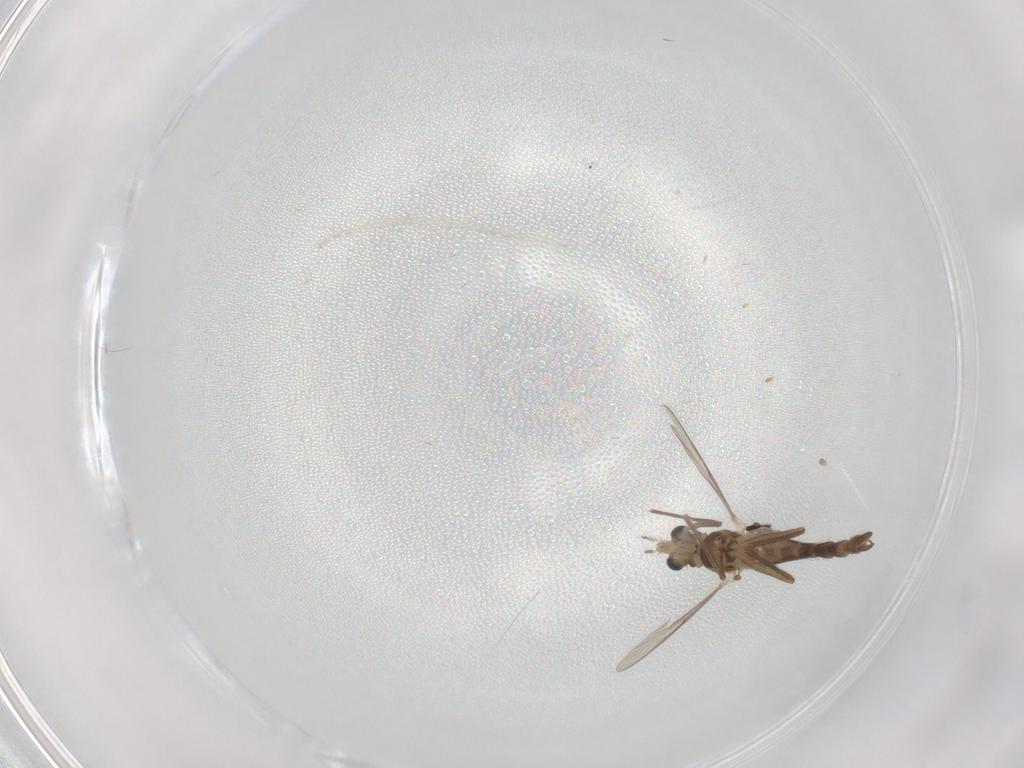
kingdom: Animalia
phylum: Arthropoda
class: Insecta
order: Diptera
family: Chironomidae
